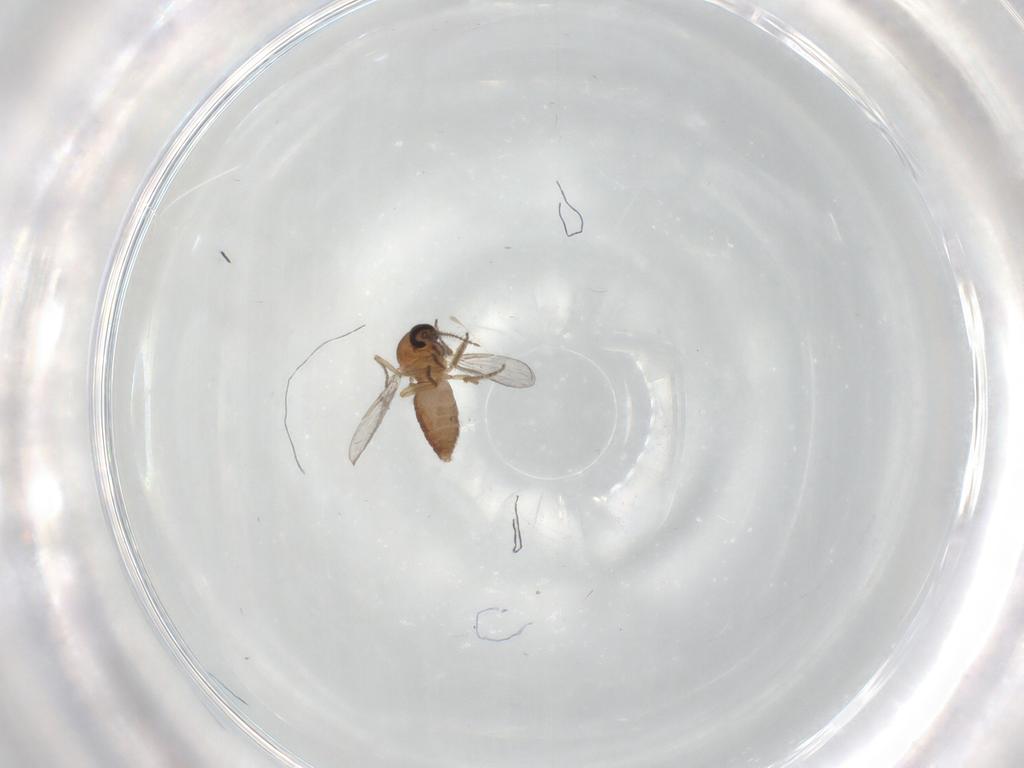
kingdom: Animalia
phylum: Arthropoda
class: Insecta
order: Diptera
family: Ceratopogonidae
